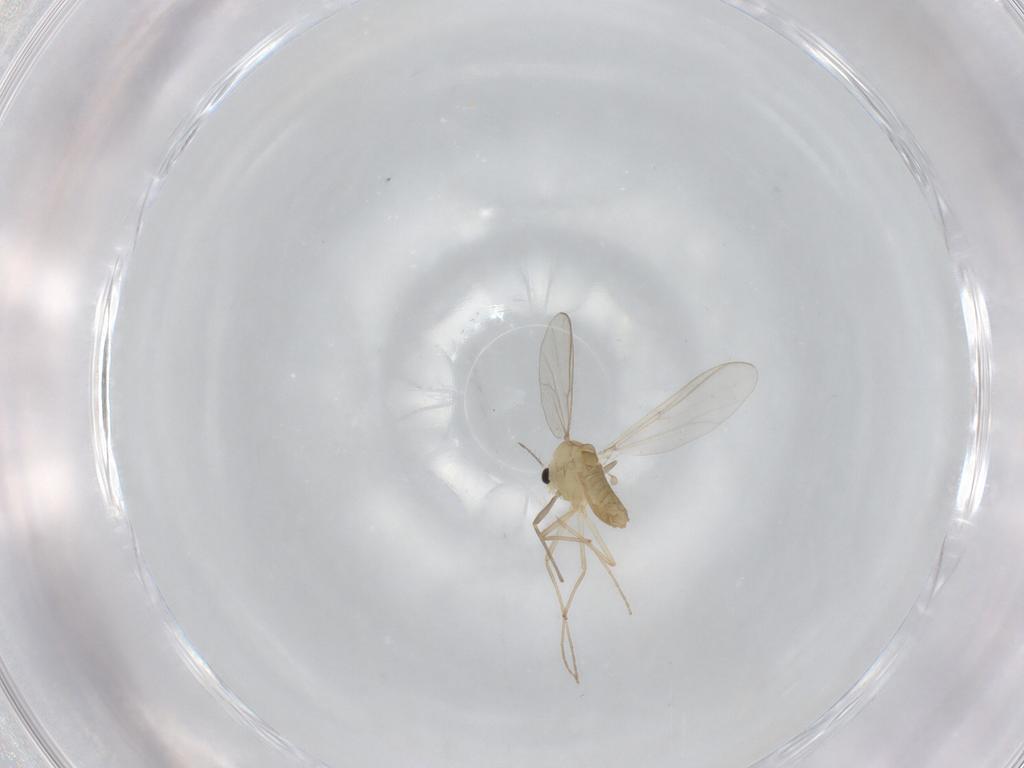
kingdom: Animalia
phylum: Arthropoda
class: Insecta
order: Diptera
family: Chironomidae
